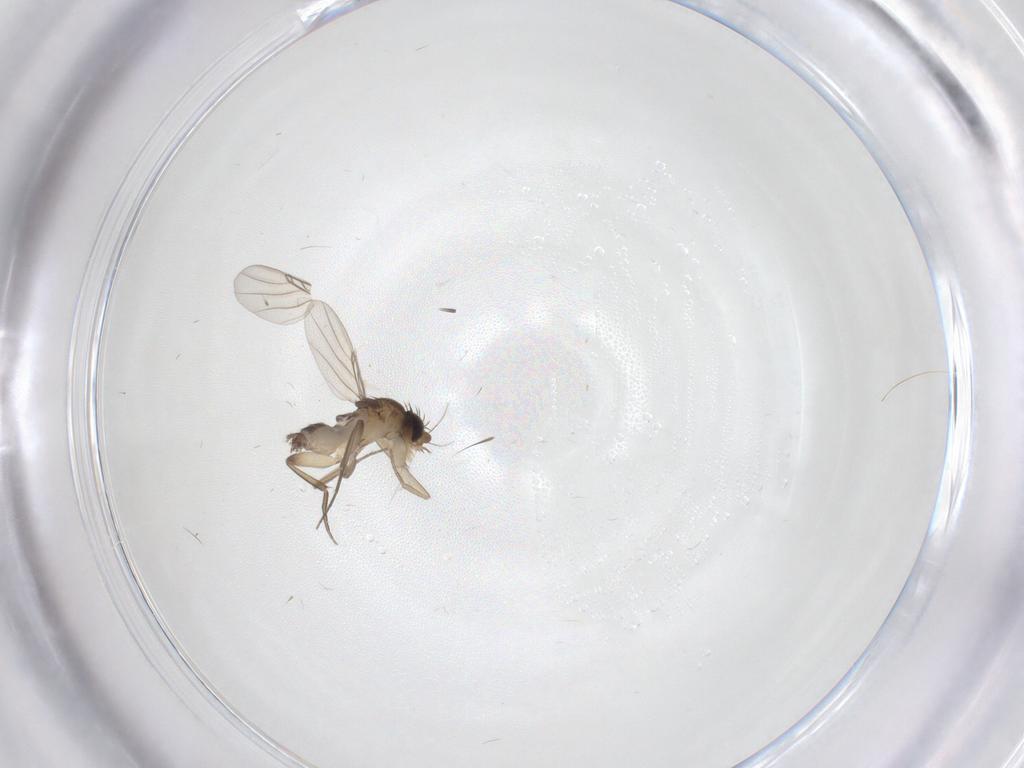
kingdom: Animalia
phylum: Arthropoda
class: Insecta
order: Diptera
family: Phoridae
